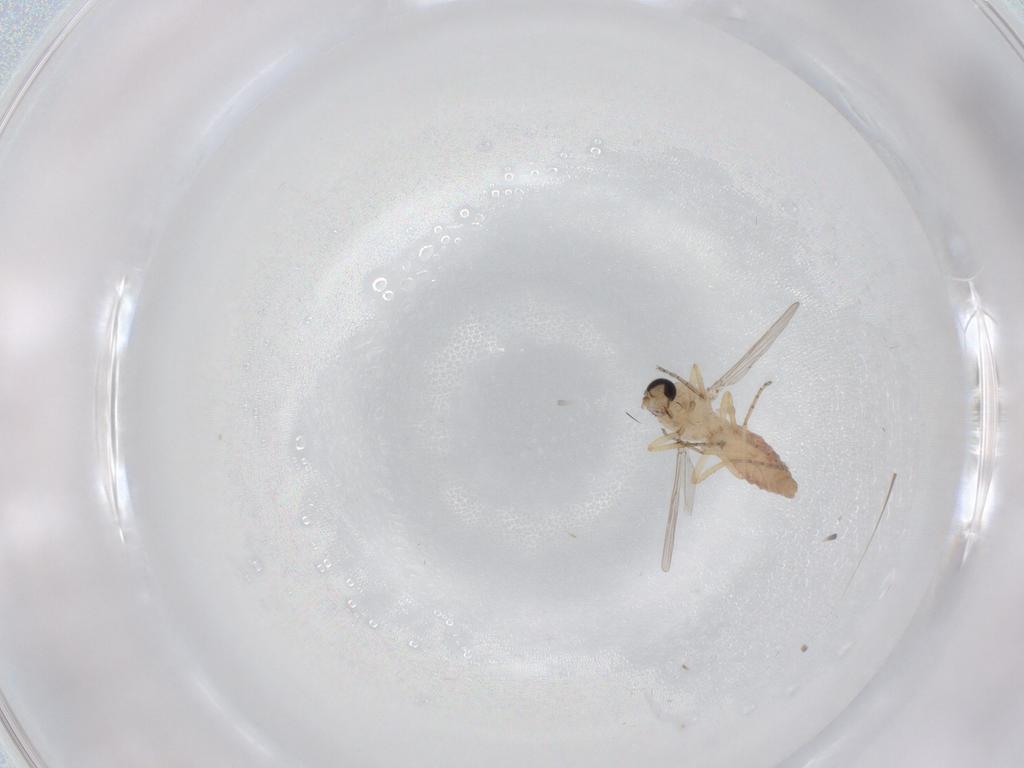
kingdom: Animalia
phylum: Arthropoda
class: Insecta
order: Diptera
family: Ceratopogonidae
